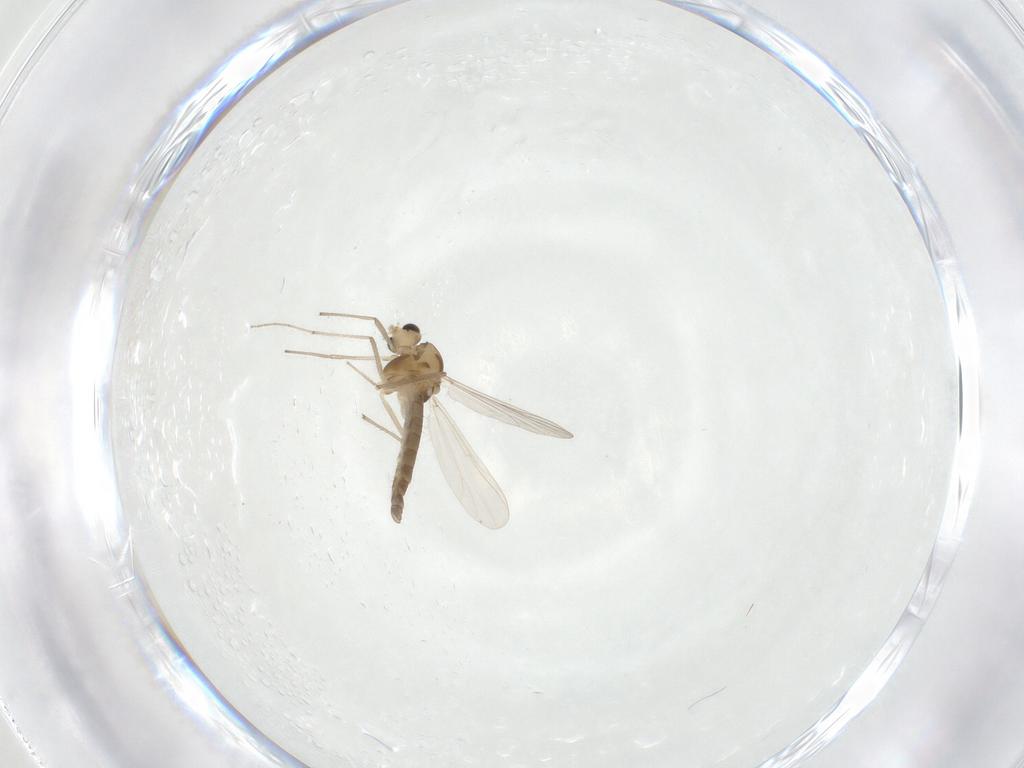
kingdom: Animalia
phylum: Arthropoda
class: Insecta
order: Diptera
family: Chironomidae
